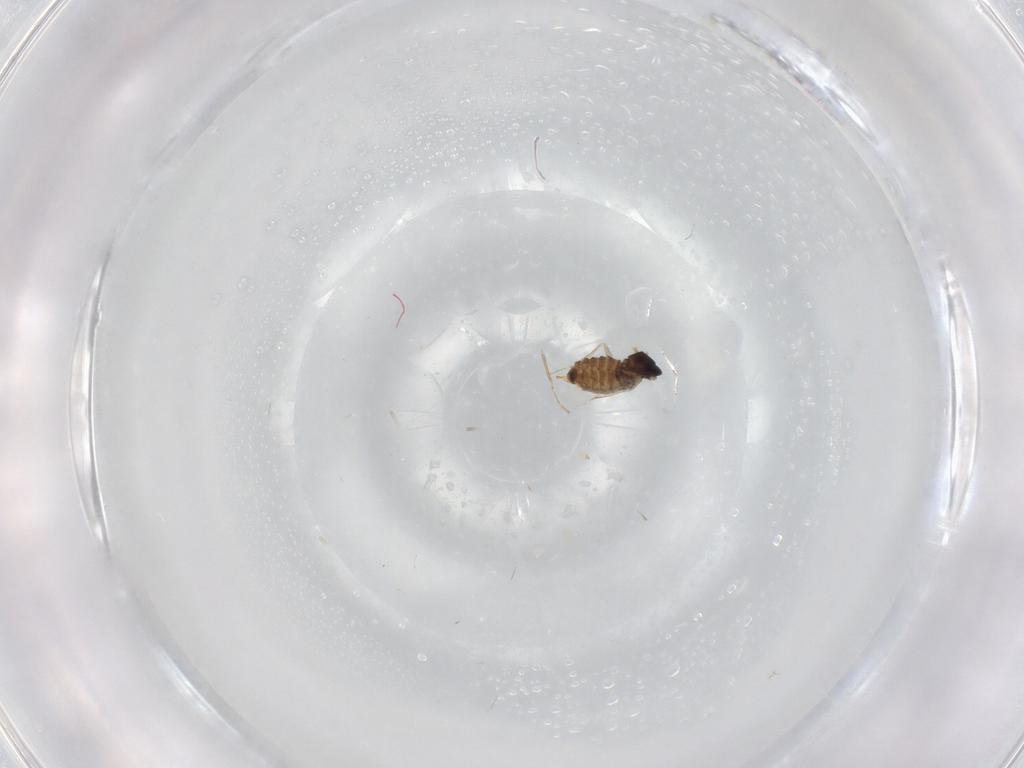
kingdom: Animalia
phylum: Arthropoda
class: Insecta
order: Diptera
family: Cecidomyiidae
